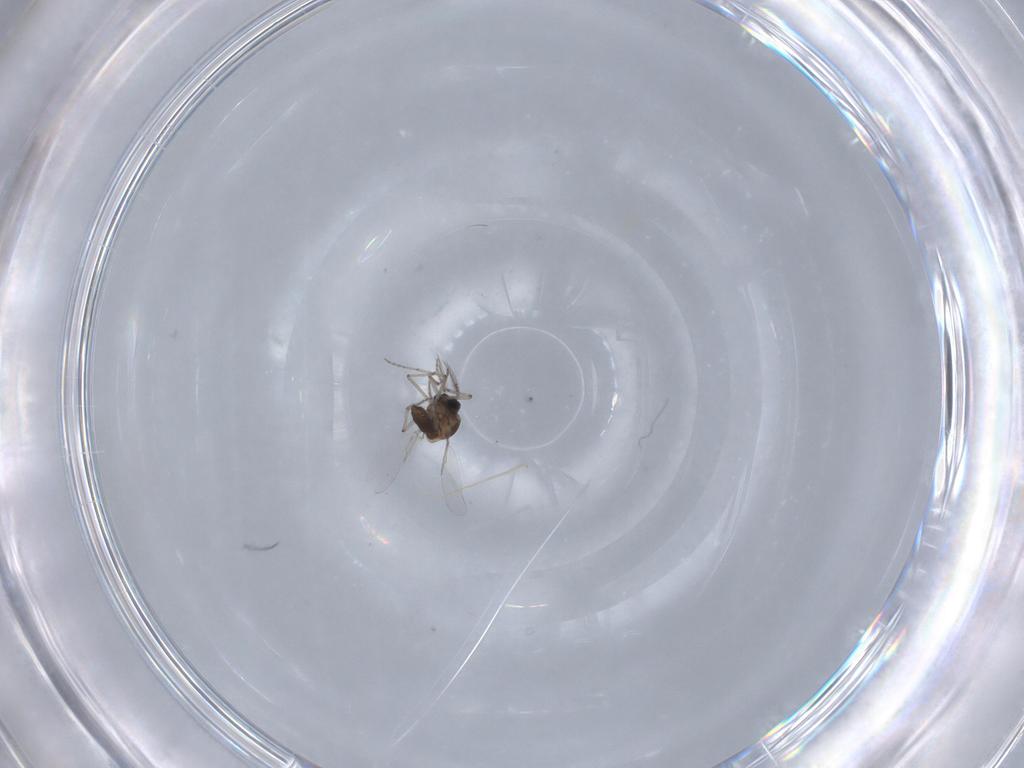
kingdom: Animalia
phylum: Arthropoda
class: Insecta
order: Diptera
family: Ceratopogonidae
